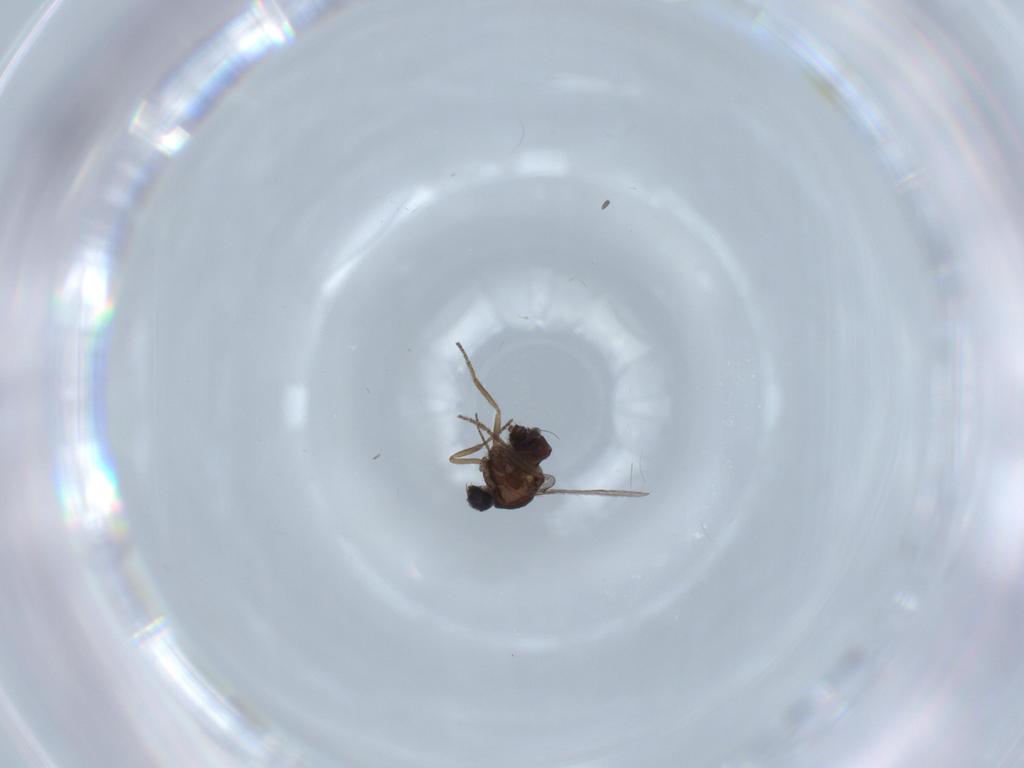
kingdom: Animalia
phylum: Arthropoda
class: Insecta
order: Diptera
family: Dolichopodidae
